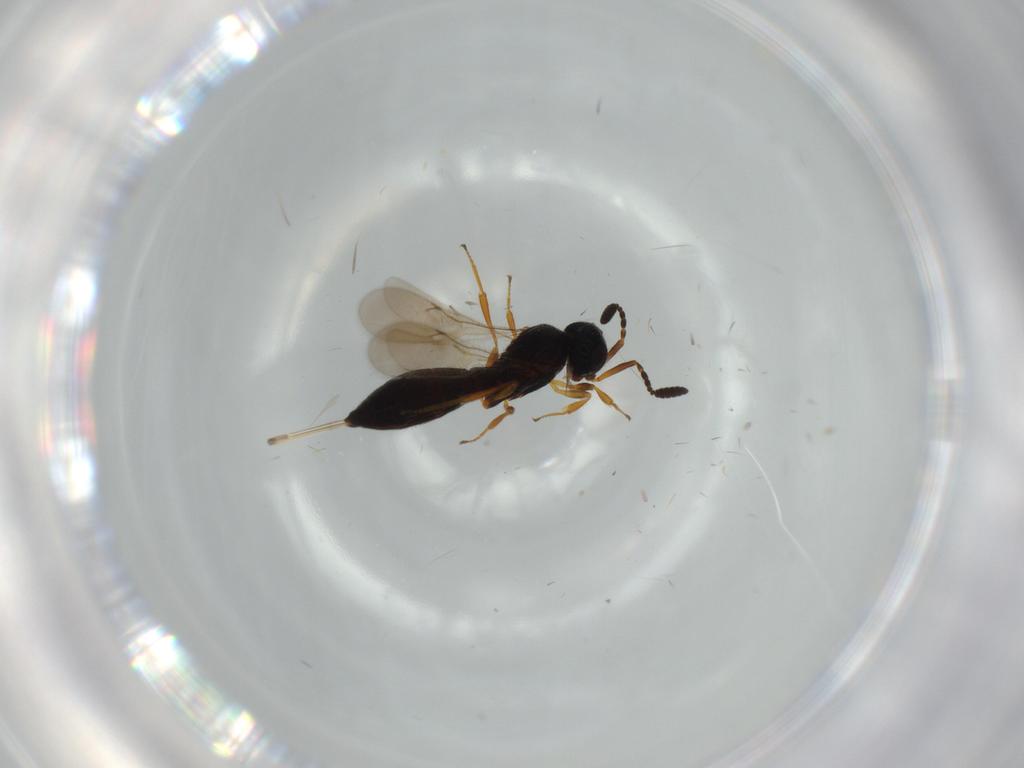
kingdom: Animalia
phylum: Arthropoda
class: Insecta
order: Hymenoptera
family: Scelionidae
